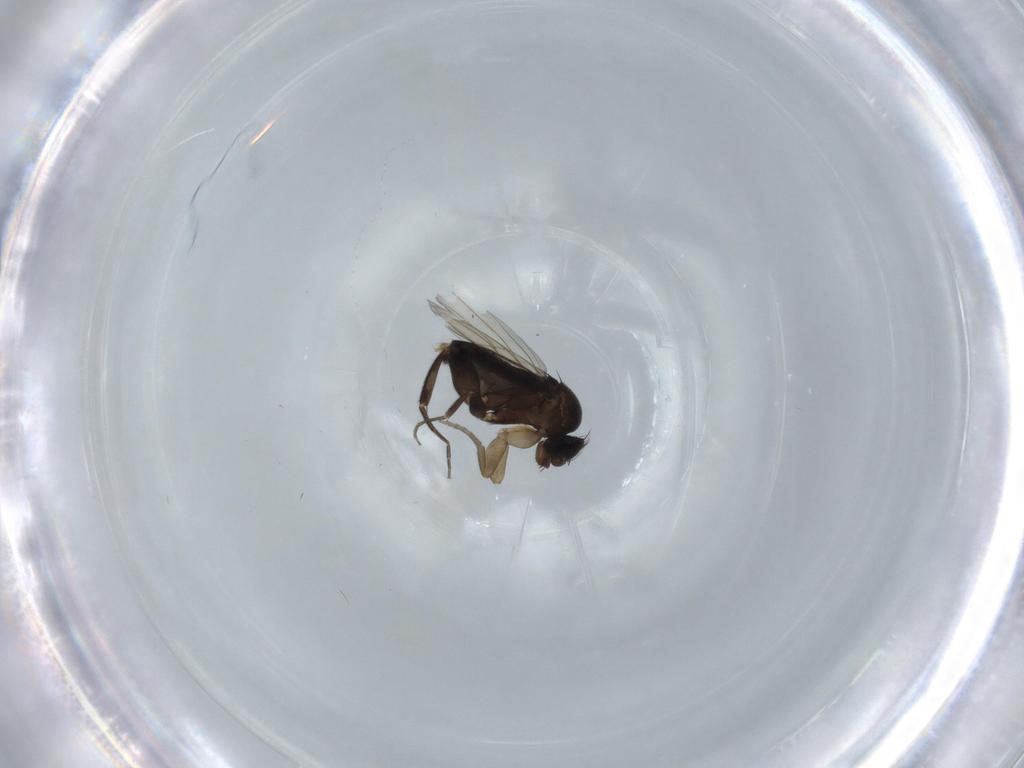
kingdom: Animalia
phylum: Arthropoda
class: Insecta
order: Diptera
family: Phoridae
